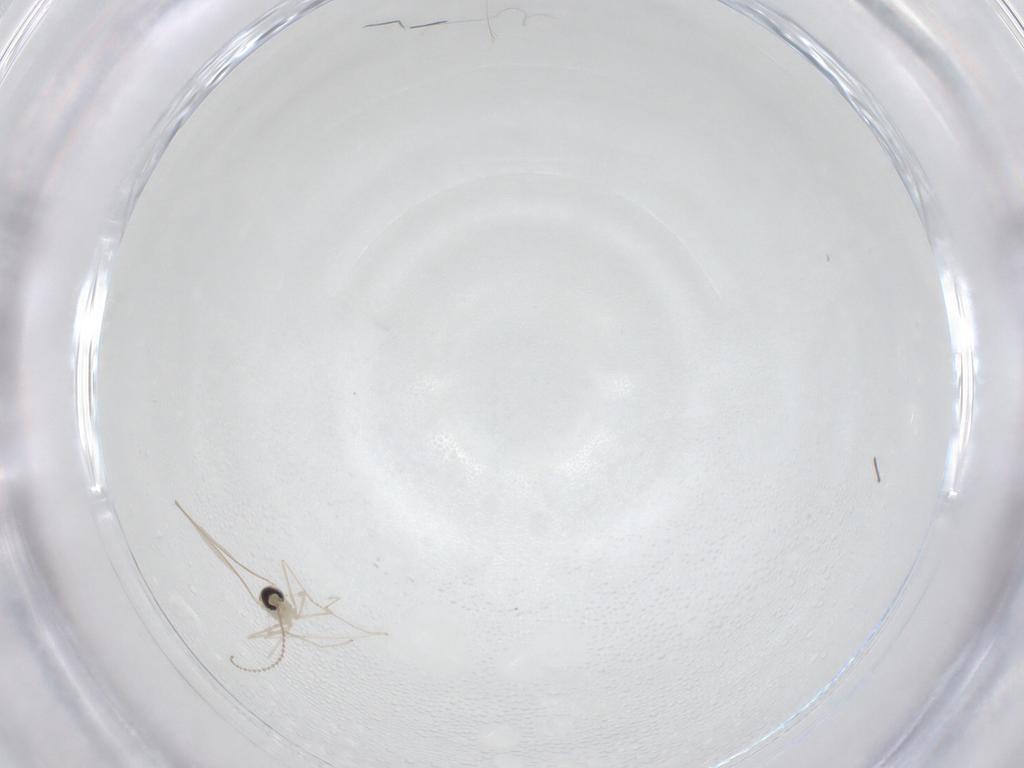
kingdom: Animalia
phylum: Arthropoda
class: Insecta
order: Diptera
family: Cecidomyiidae
